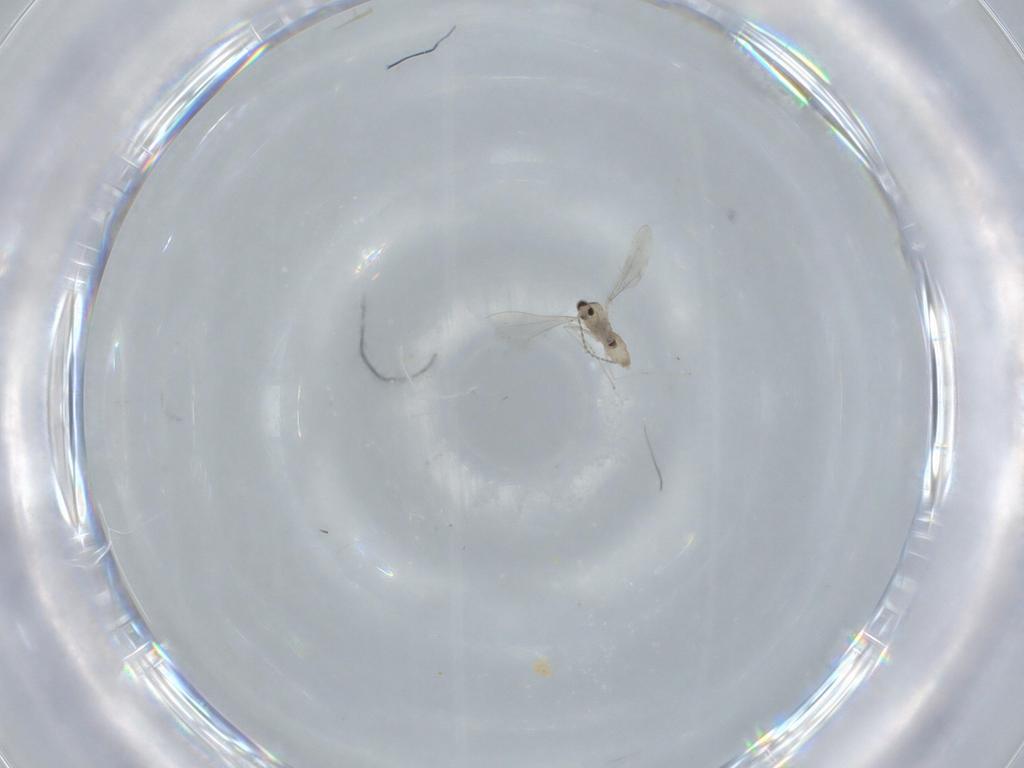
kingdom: Animalia
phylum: Arthropoda
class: Insecta
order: Diptera
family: Cecidomyiidae
